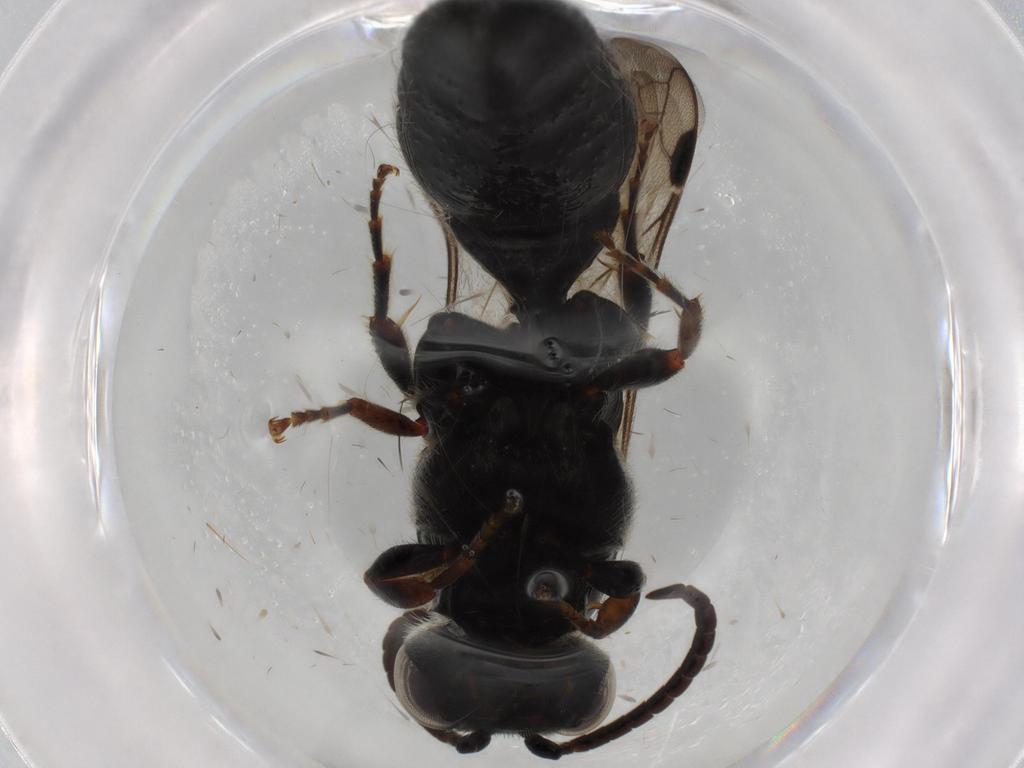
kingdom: Animalia
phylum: Arthropoda
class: Insecta
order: Hymenoptera
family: Tiphiidae
